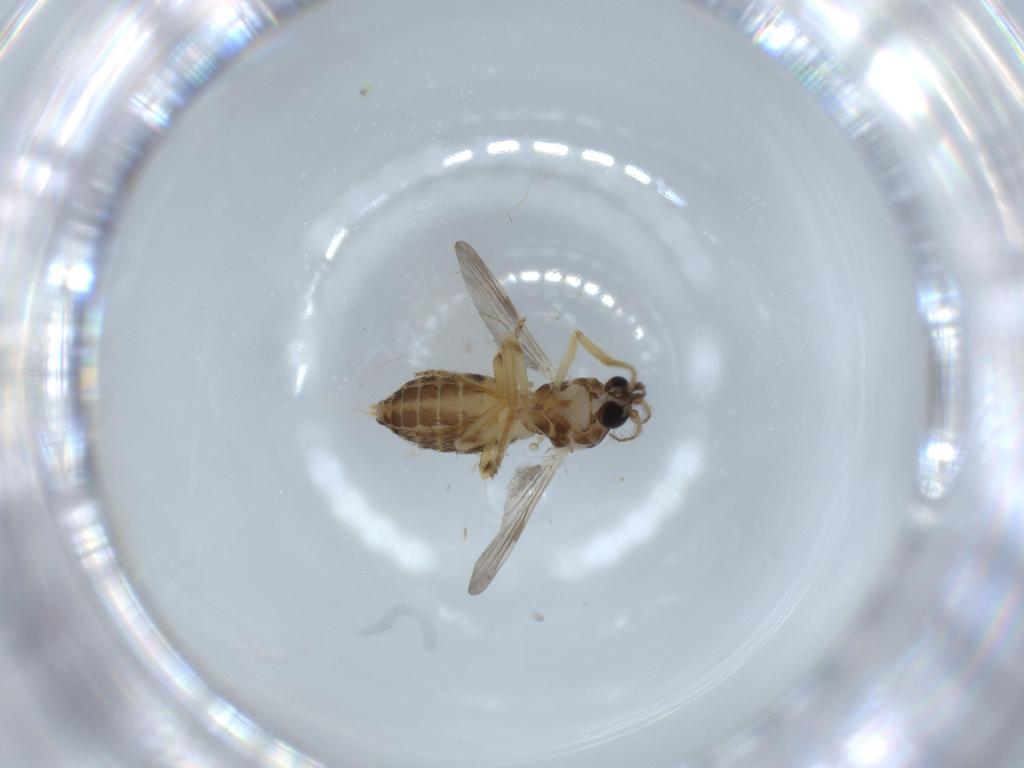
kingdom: Animalia
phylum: Arthropoda
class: Insecta
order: Diptera
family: Ceratopogonidae
